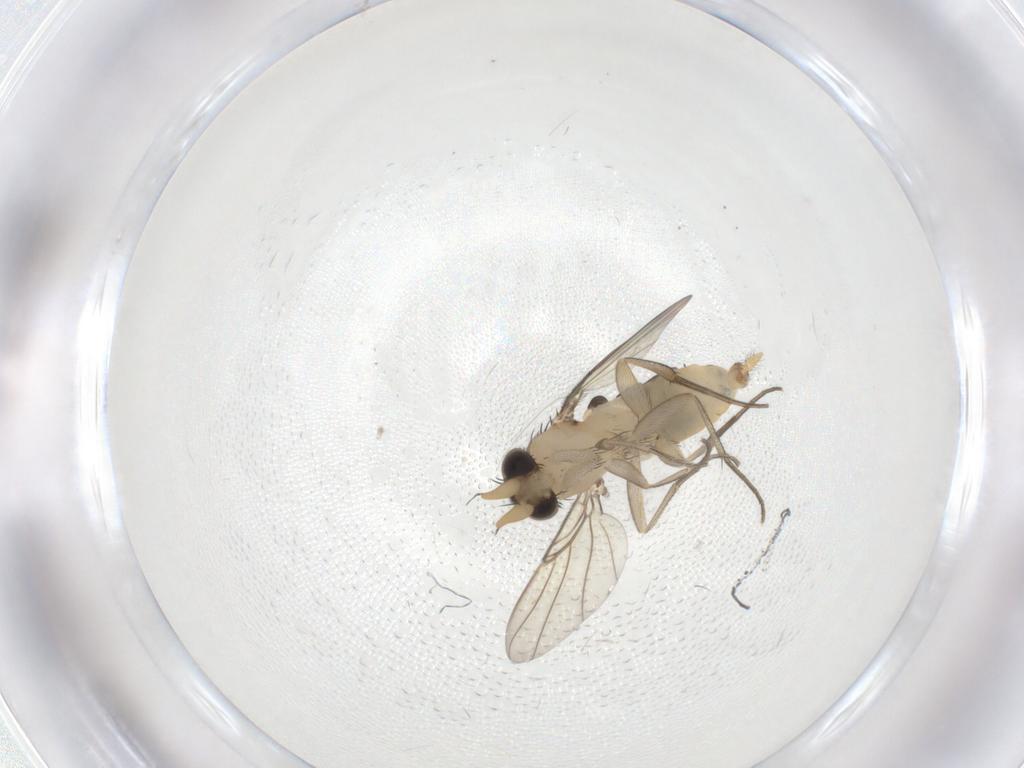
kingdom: Animalia
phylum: Arthropoda
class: Insecta
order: Diptera
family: Phoridae
